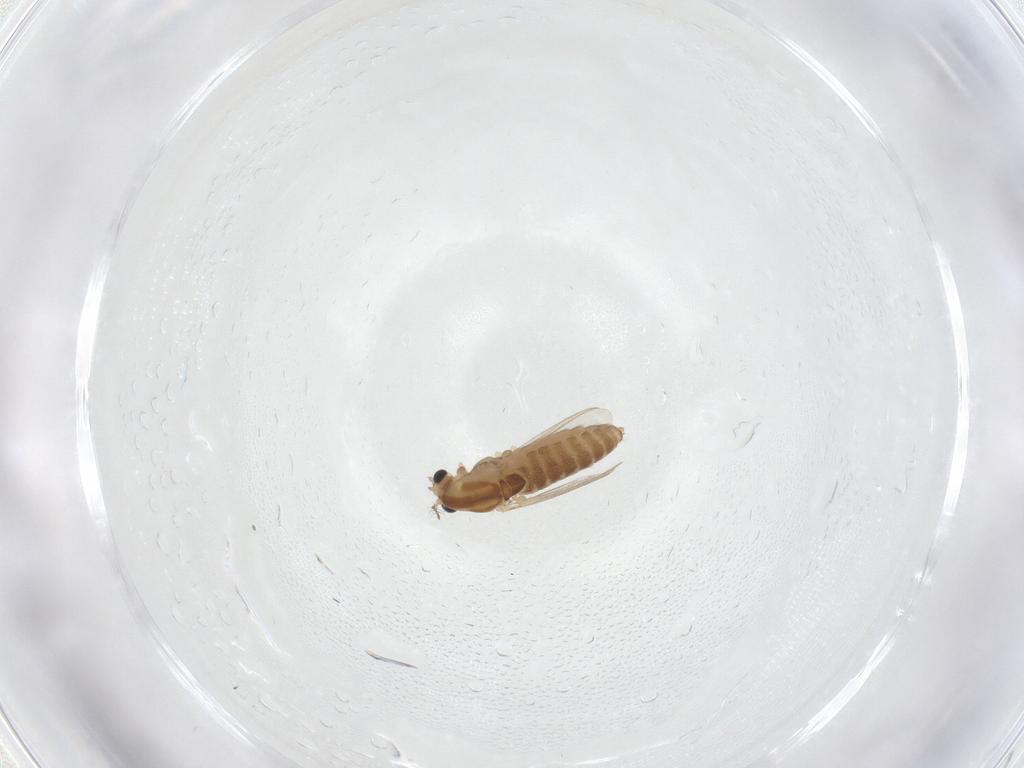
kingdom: Animalia
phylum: Arthropoda
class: Insecta
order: Diptera
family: Chironomidae
